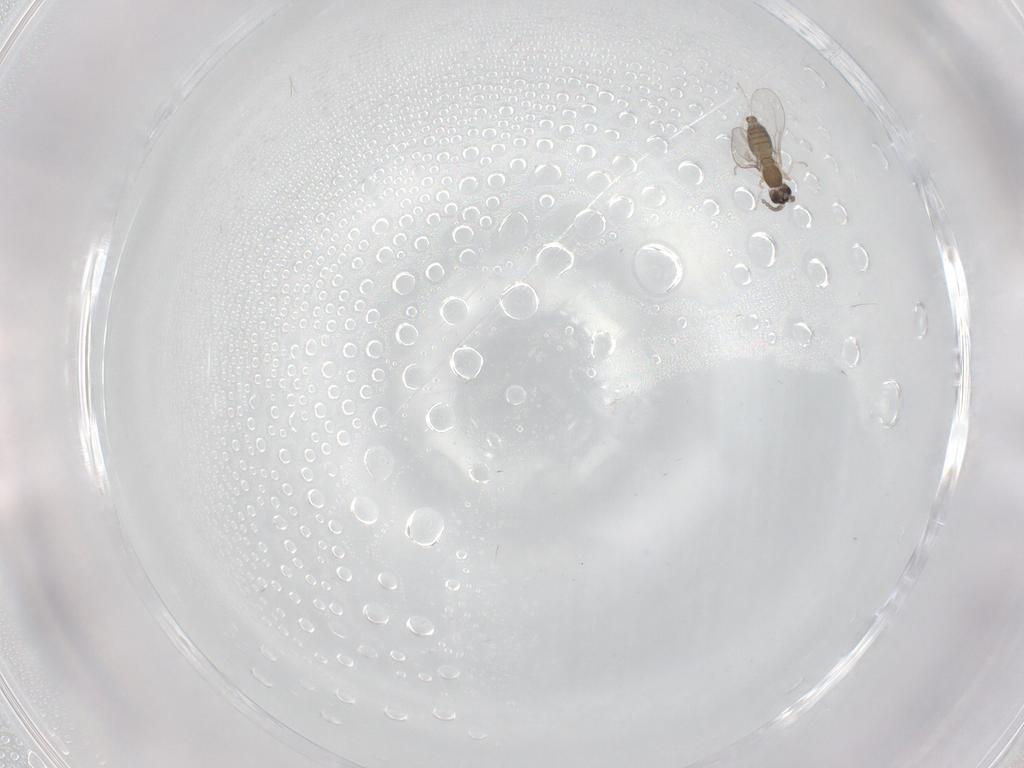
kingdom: Animalia
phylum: Arthropoda
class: Insecta
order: Diptera
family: Cecidomyiidae
